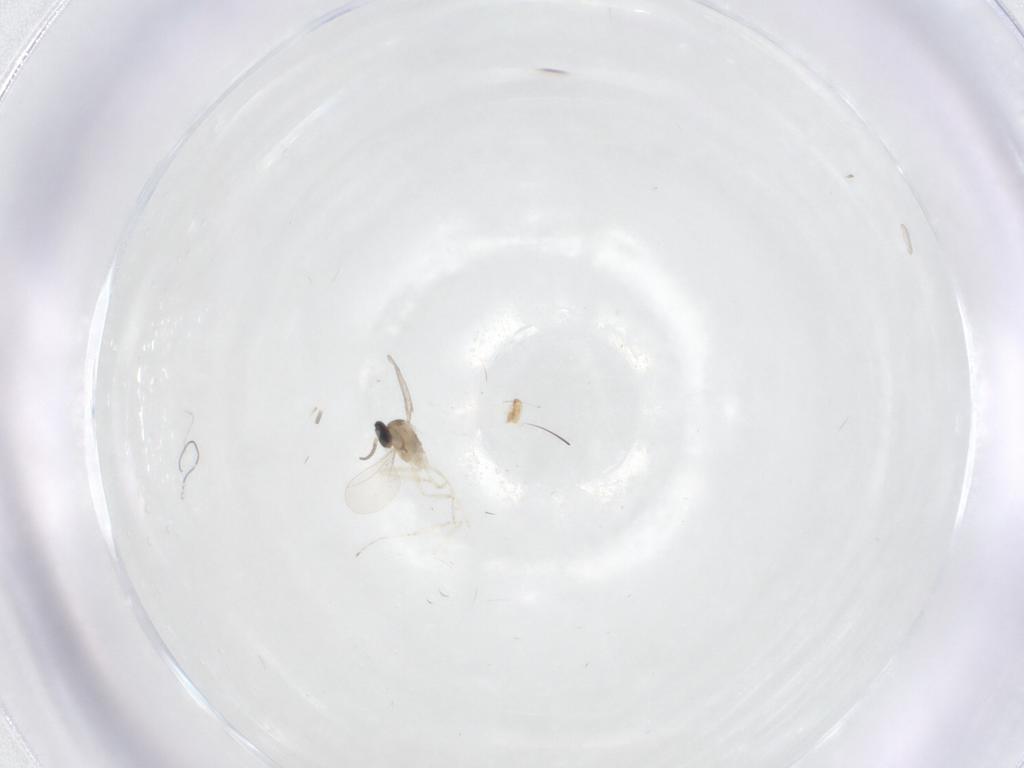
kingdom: Animalia
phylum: Arthropoda
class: Insecta
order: Diptera
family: Cecidomyiidae
